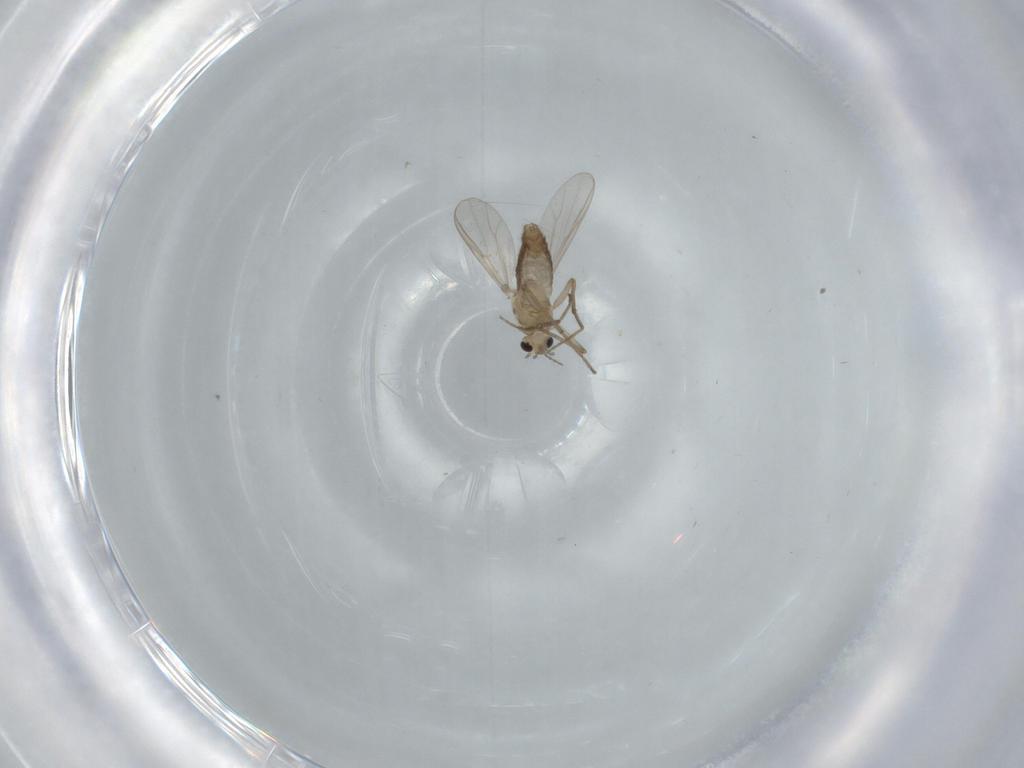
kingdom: Animalia
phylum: Arthropoda
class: Insecta
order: Diptera
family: Chironomidae
